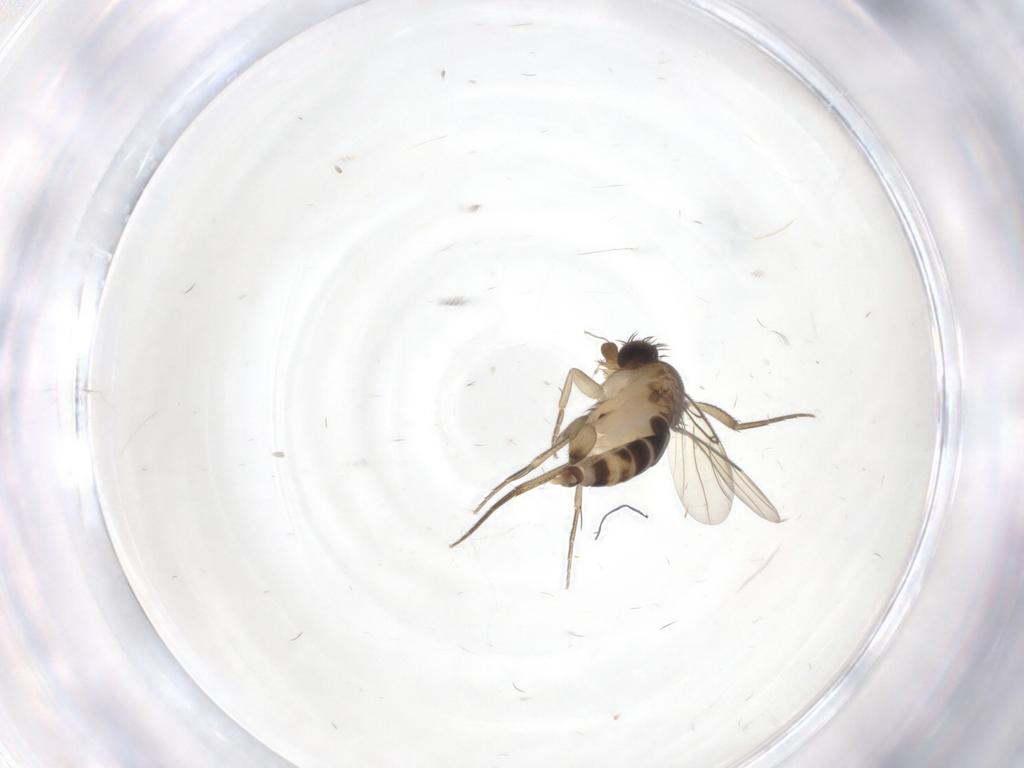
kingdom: Animalia
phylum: Arthropoda
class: Insecta
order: Diptera
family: Phoridae
